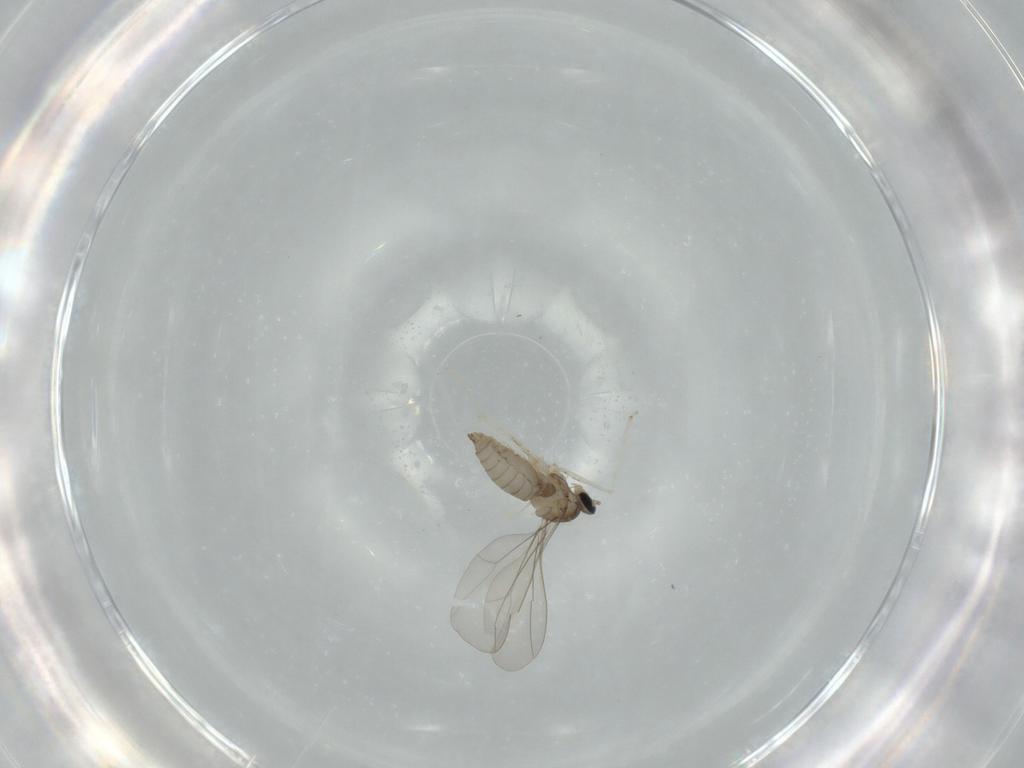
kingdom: Animalia
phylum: Arthropoda
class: Insecta
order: Diptera
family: Cecidomyiidae
